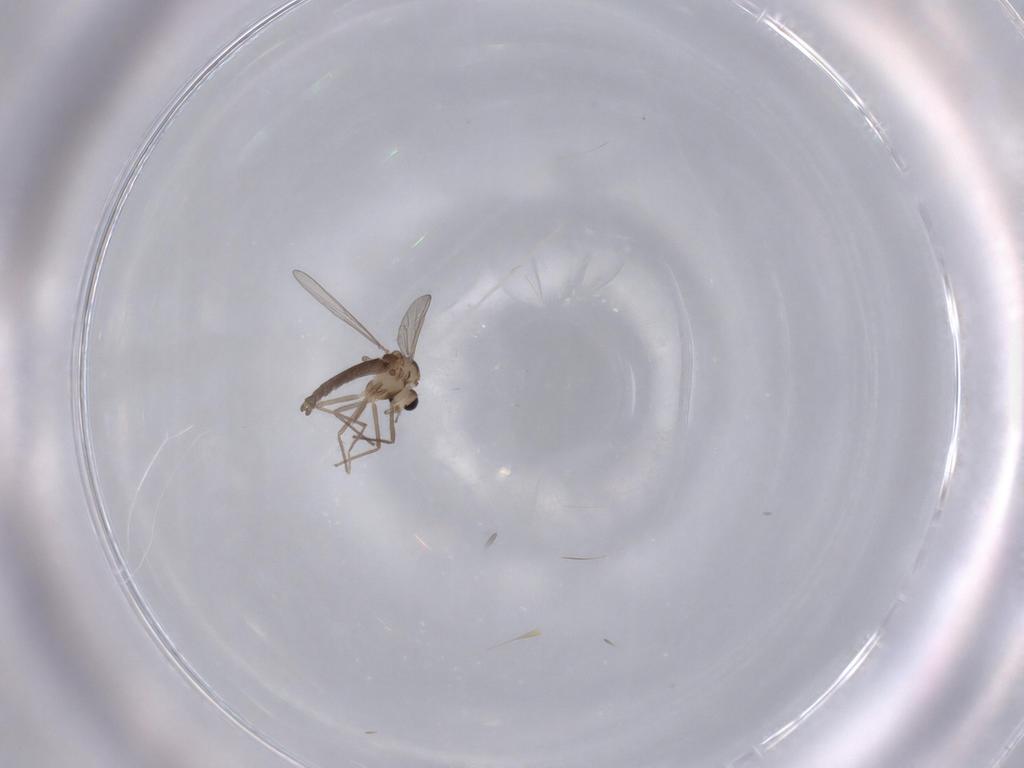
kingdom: Animalia
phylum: Arthropoda
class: Insecta
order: Diptera
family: Chironomidae
